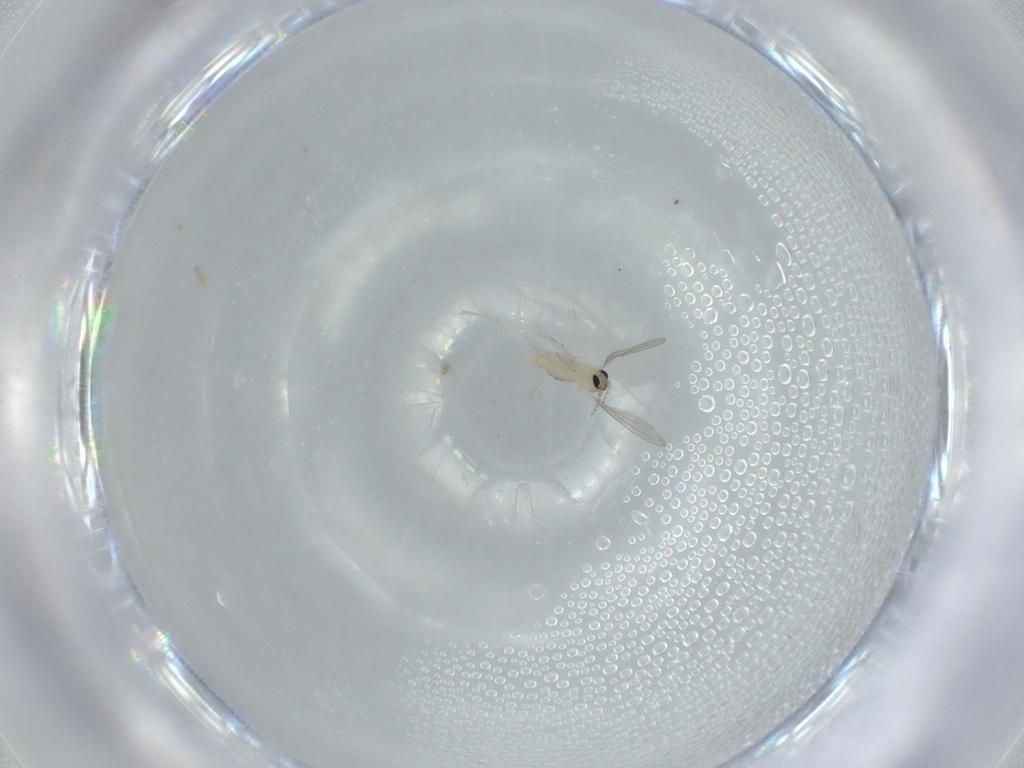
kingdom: Animalia
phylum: Arthropoda
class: Insecta
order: Diptera
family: Cecidomyiidae
